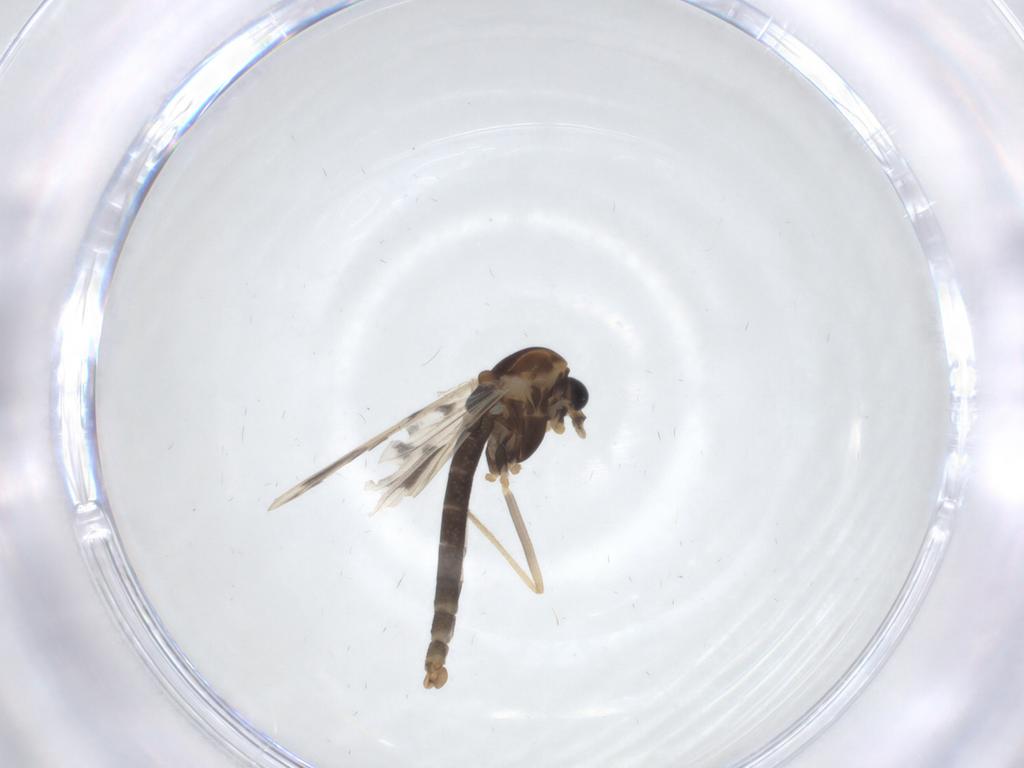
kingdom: Animalia
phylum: Arthropoda
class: Insecta
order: Diptera
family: Chironomidae
